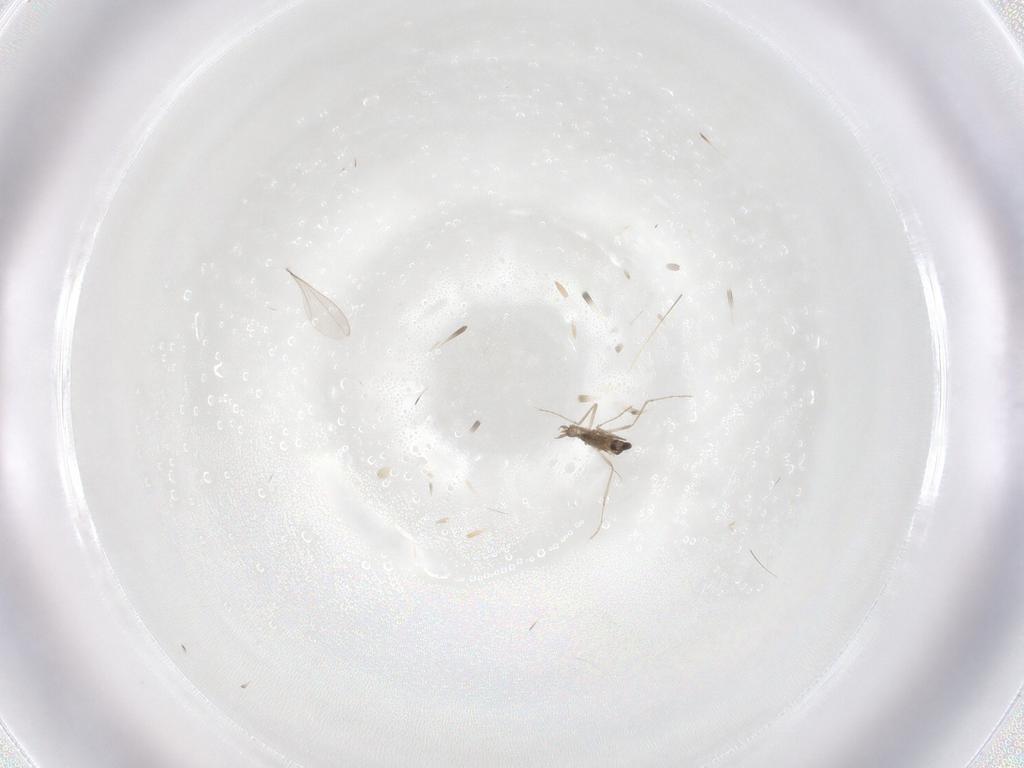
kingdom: Animalia
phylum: Arthropoda
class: Insecta
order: Diptera
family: Cecidomyiidae
